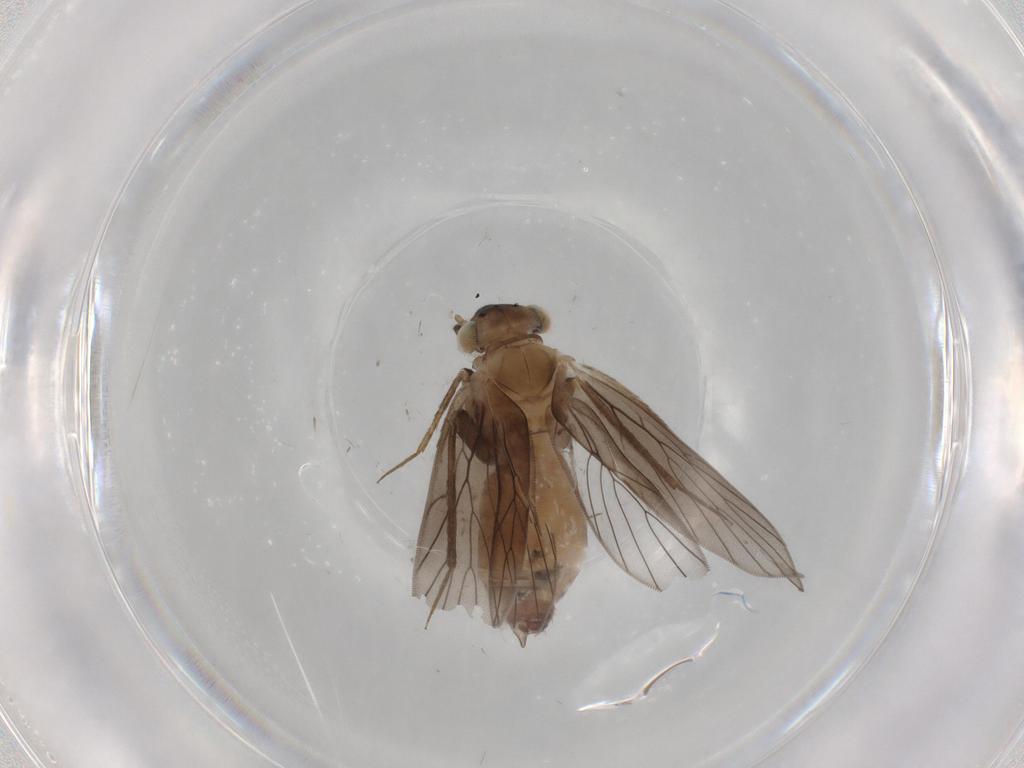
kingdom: Animalia
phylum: Arthropoda
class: Insecta
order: Psocodea
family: Lepidopsocidae
